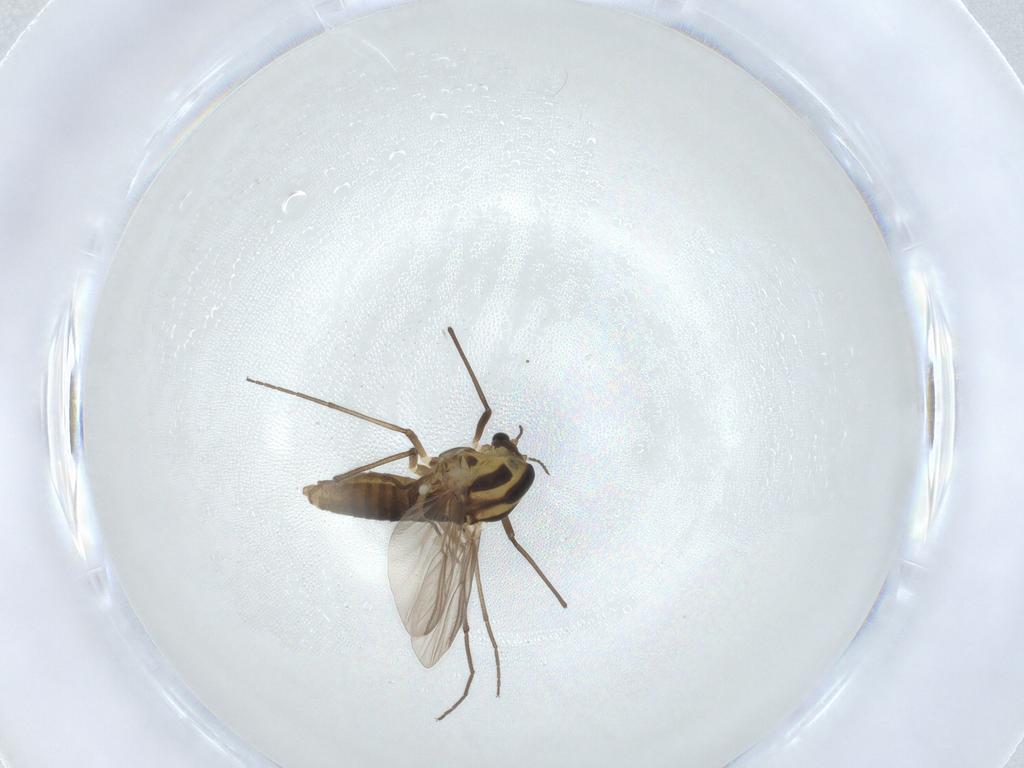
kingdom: Animalia
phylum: Arthropoda
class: Insecta
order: Diptera
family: Chironomidae
